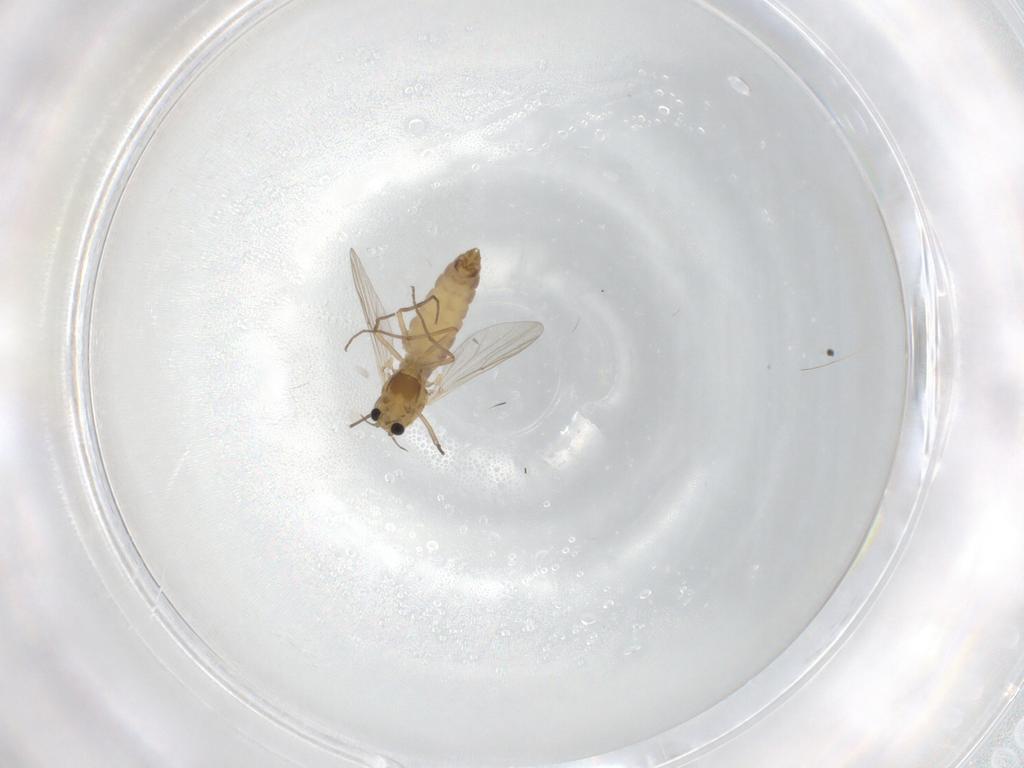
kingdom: Animalia
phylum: Arthropoda
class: Insecta
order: Diptera
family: Chironomidae
